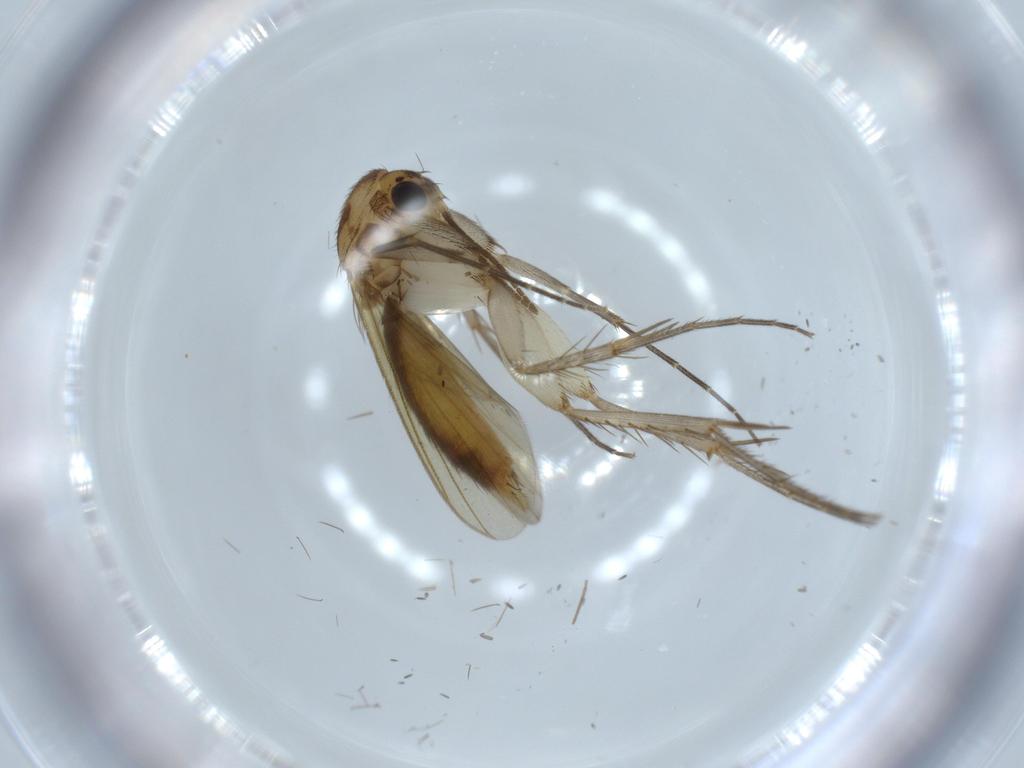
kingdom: Animalia
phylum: Arthropoda
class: Insecta
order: Diptera
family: Mycetophilidae
